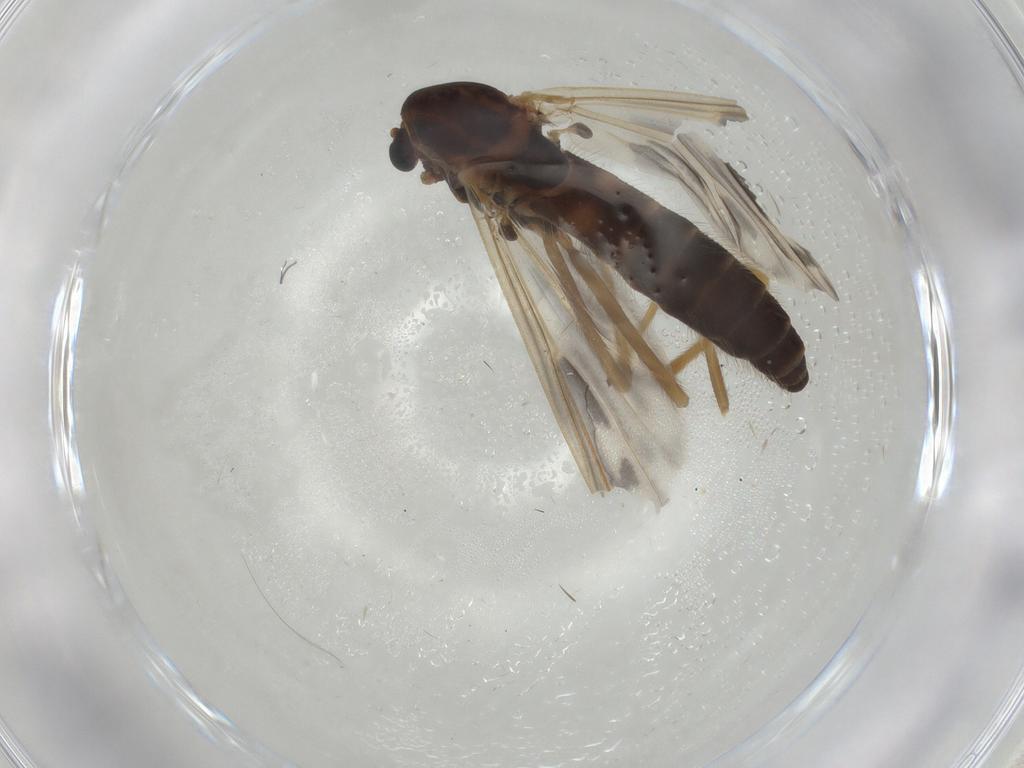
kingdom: Animalia
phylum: Arthropoda
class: Insecta
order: Diptera
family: Chironomidae
